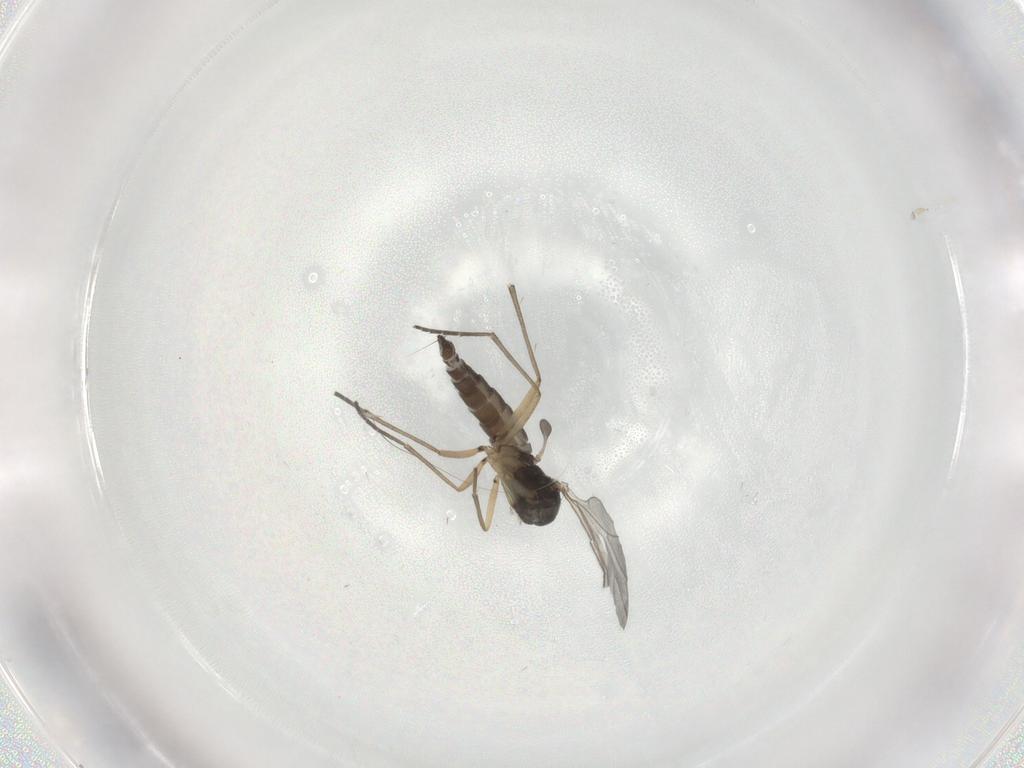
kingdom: Animalia
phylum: Arthropoda
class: Insecta
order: Diptera
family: Sciaridae
